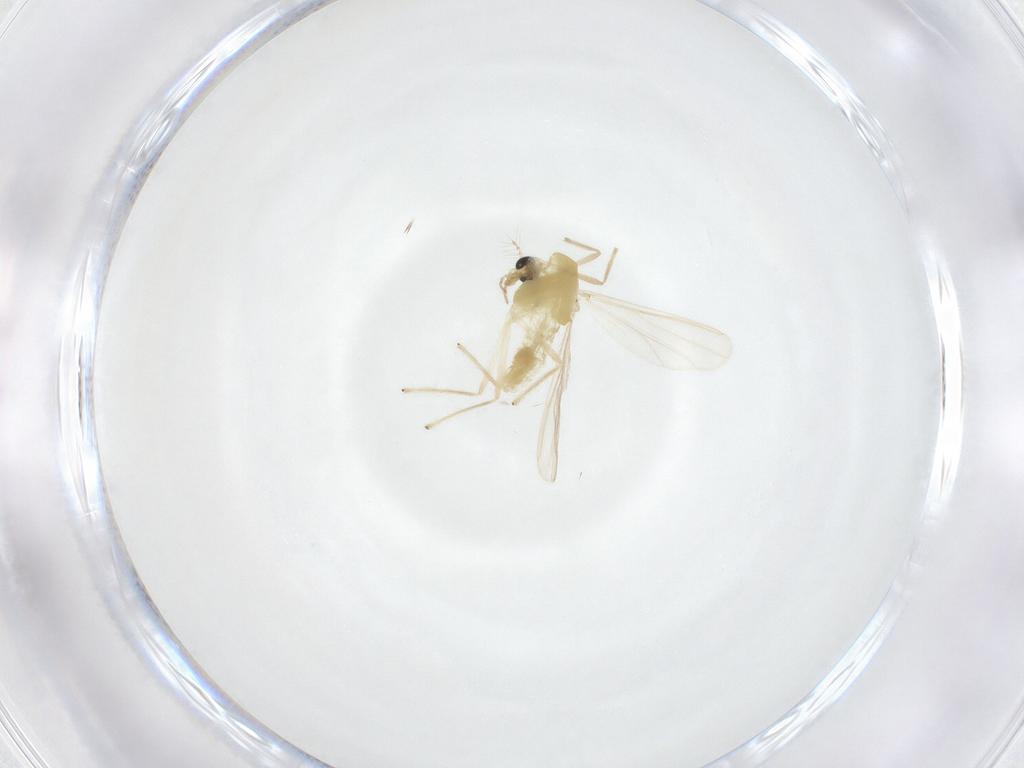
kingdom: Animalia
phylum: Arthropoda
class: Insecta
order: Diptera
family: Chironomidae
